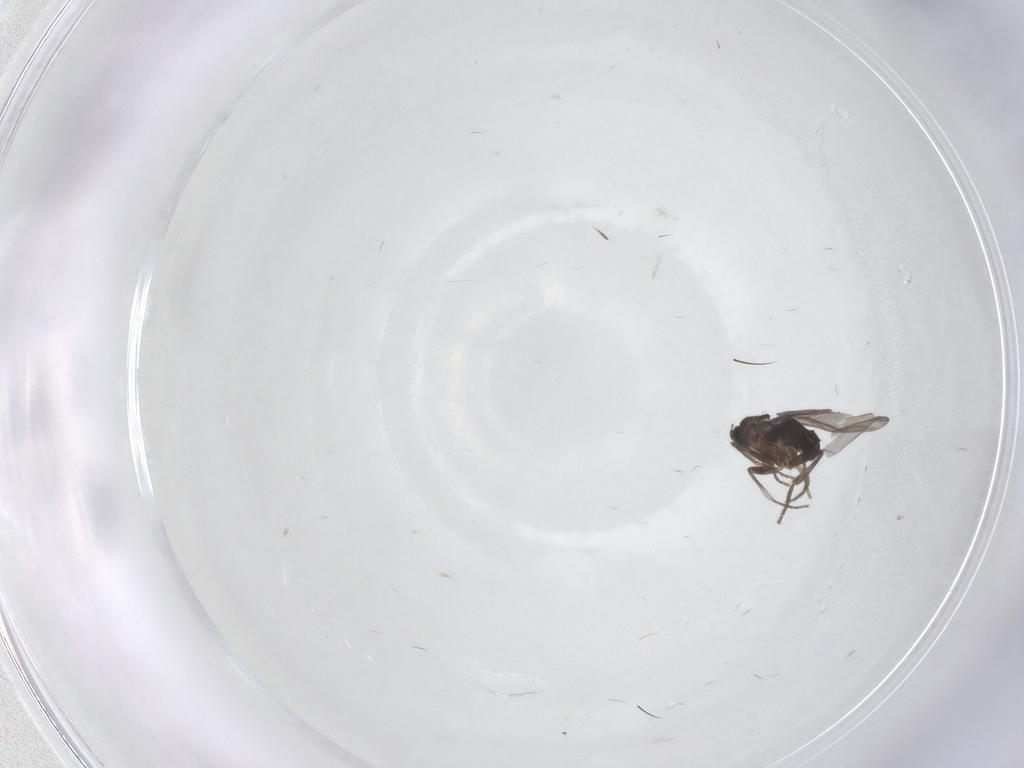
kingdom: Animalia
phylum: Arthropoda
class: Insecta
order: Diptera
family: Phoridae
